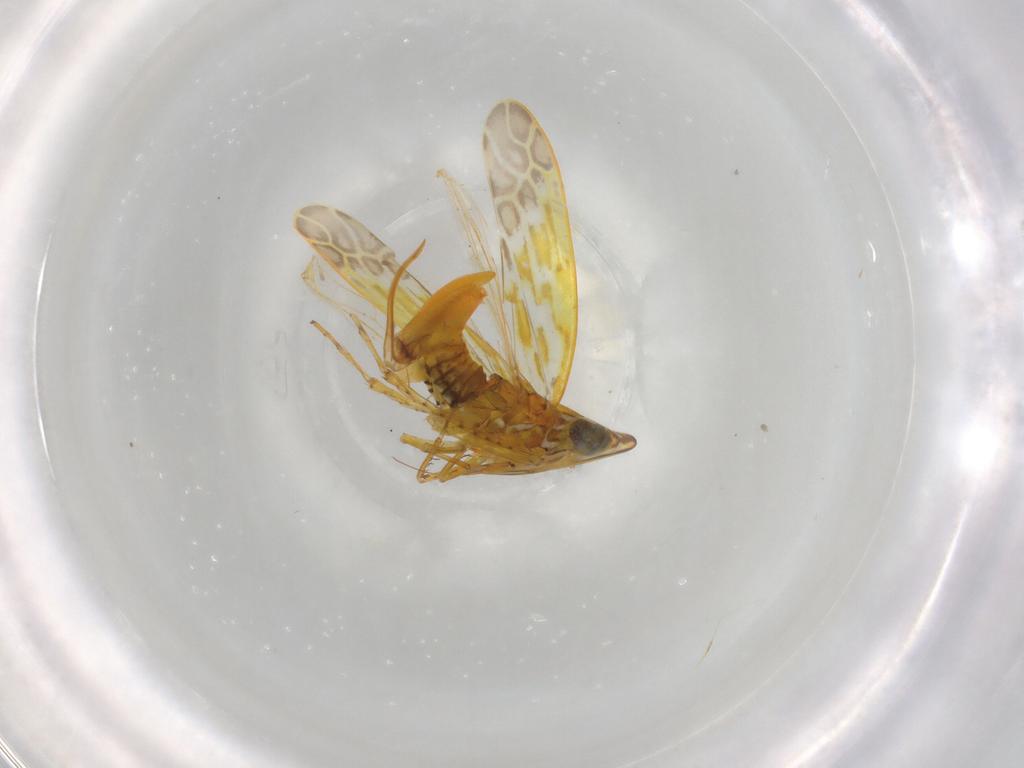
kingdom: Animalia
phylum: Arthropoda
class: Insecta
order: Hemiptera
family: Cicadellidae
